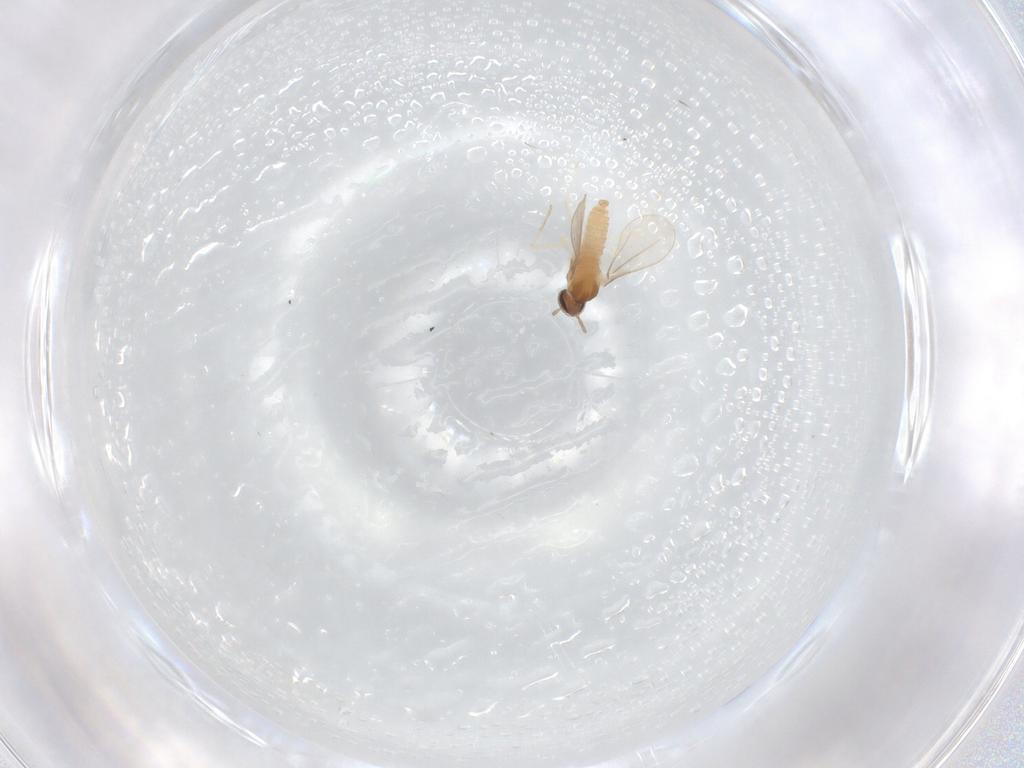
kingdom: Animalia
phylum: Arthropoda
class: Insecta
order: Diptera
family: Cecidomyiidae
